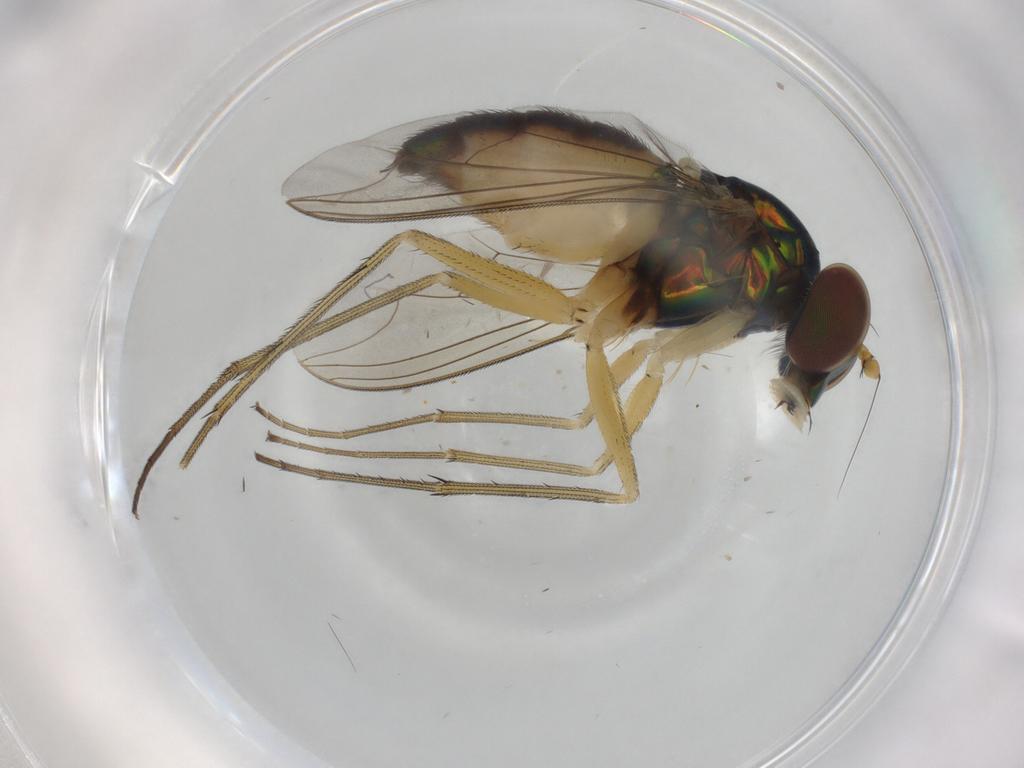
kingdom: Animalia
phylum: Arthropoda
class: Insecta
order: Diptera
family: Dolichopodidae
